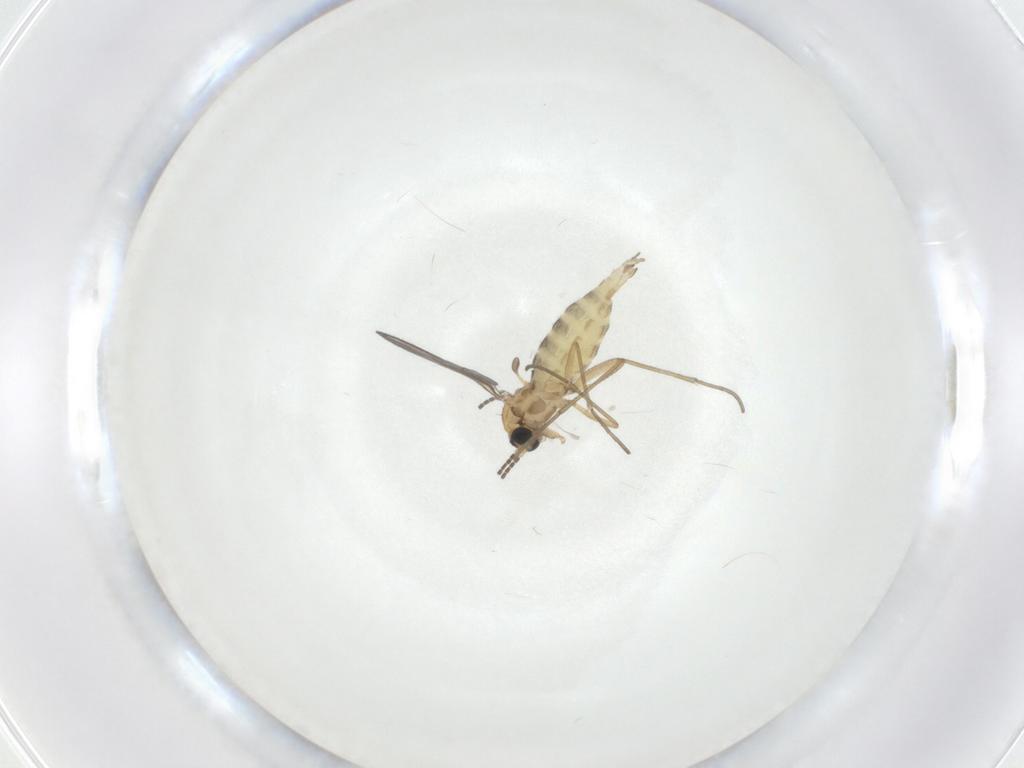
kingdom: Animalia
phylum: Arthropoda
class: Insecta
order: Diptera
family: Sciaridae
